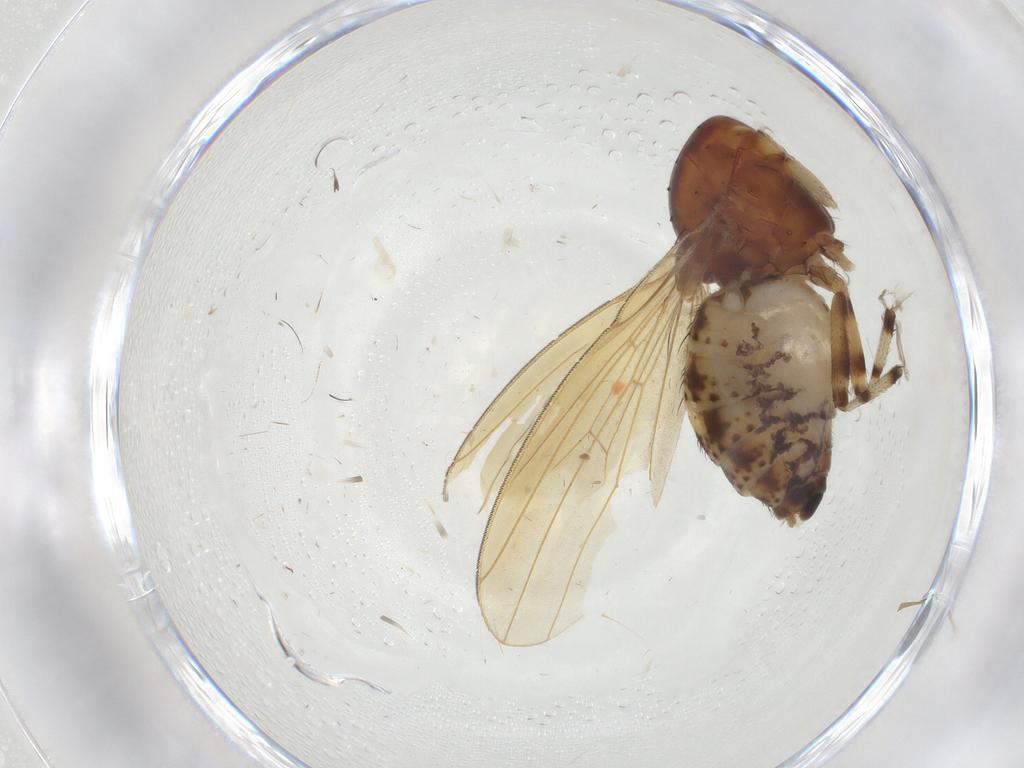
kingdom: Animalia
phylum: Arthropoda
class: Insecta
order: Diptera
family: Lauxaniidae
